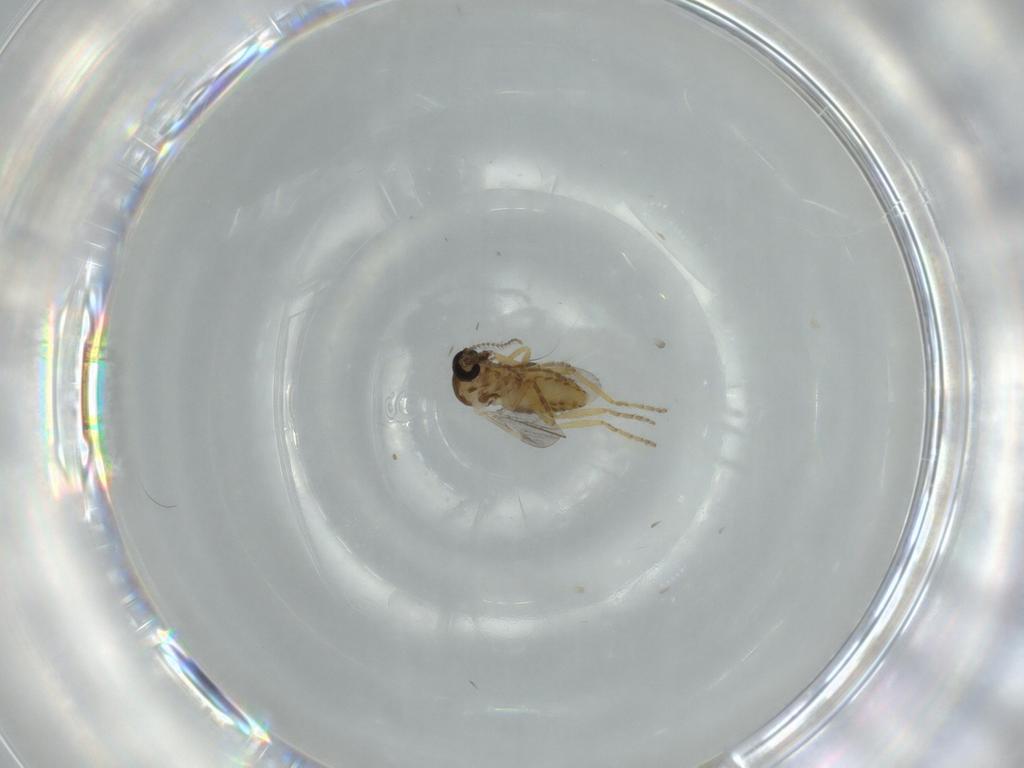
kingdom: Animalia
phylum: Arthropoda
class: Insecta
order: Diptera
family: Ceratopogonidae
